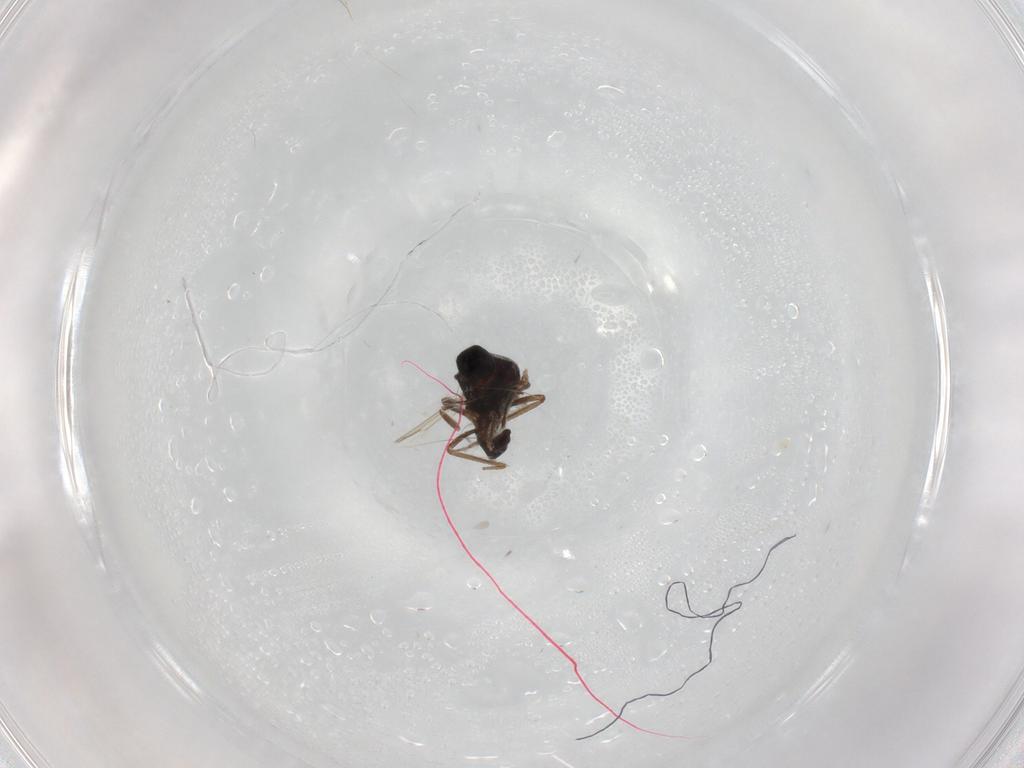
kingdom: Animalia
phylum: Arthropoda
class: Insecta
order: Diptera
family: Ceratopogonidae
